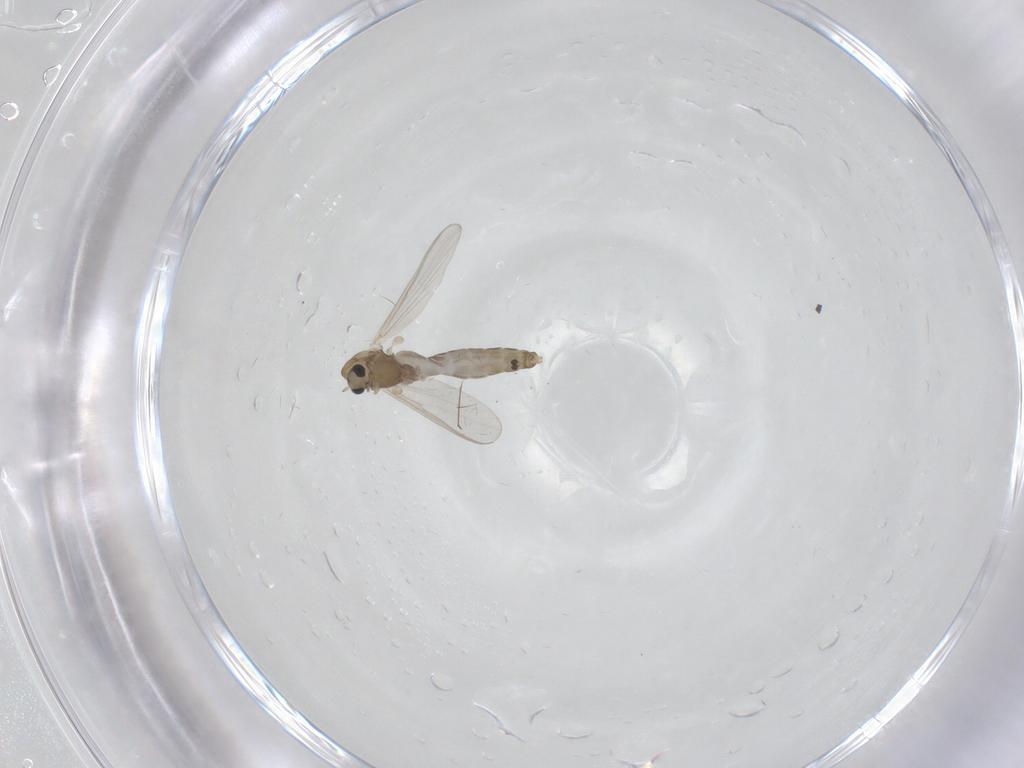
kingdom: Animalia
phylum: Arthropoda
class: Insecta
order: Diptera
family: Chironomidae
